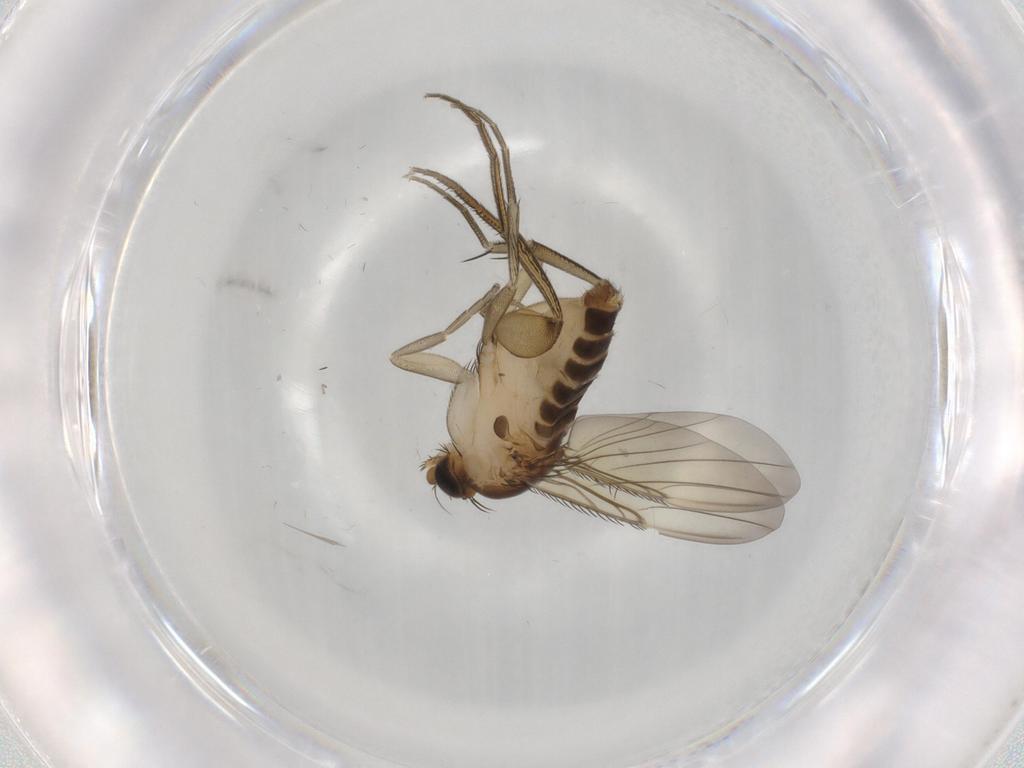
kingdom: Animalia
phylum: Arthropoda
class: Insecta
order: Diptera
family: Phoridae
